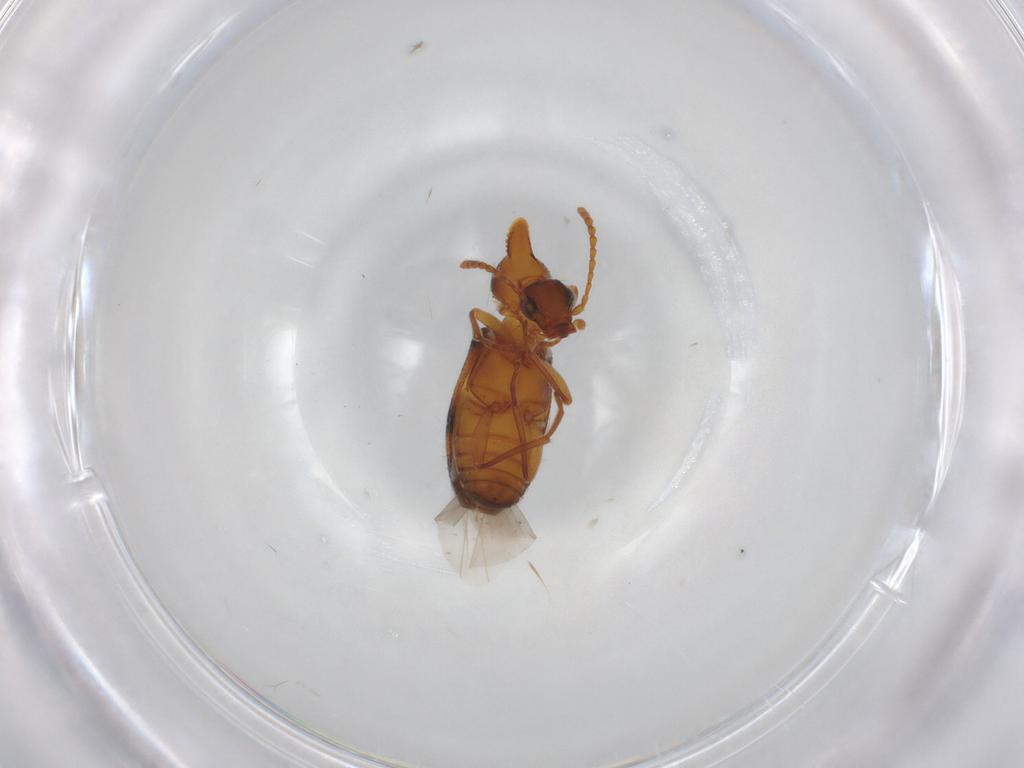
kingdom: Animalia
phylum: Arthropoda
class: Insecta
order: Coleoptera
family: Anthicidae
